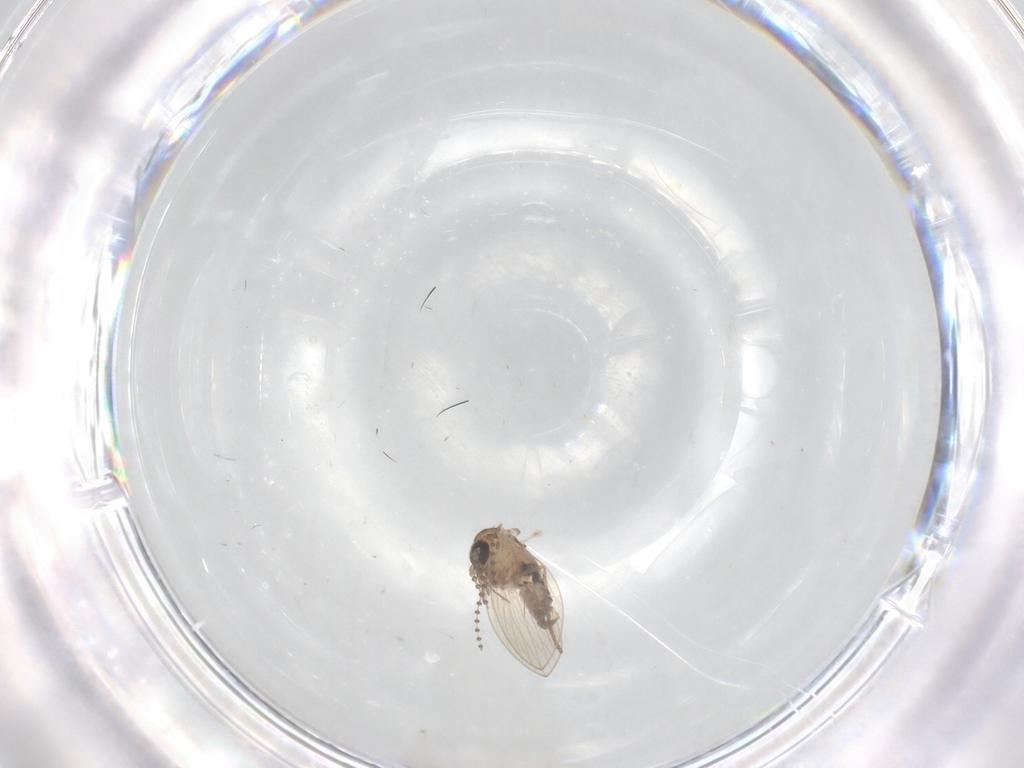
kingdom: Animalia
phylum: Arthropoda
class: Insecta
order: Diptera
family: Psychodidae
